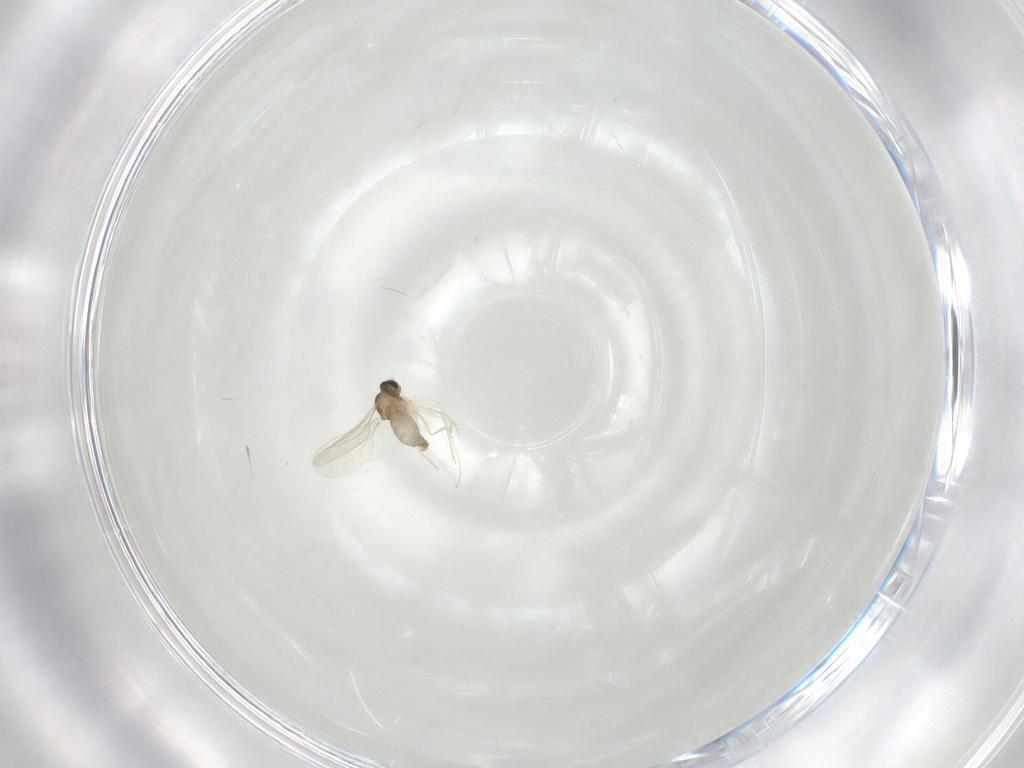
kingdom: Animalia
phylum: Arthropoda
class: Insecta
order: Diptera
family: Cecidomyiidae
